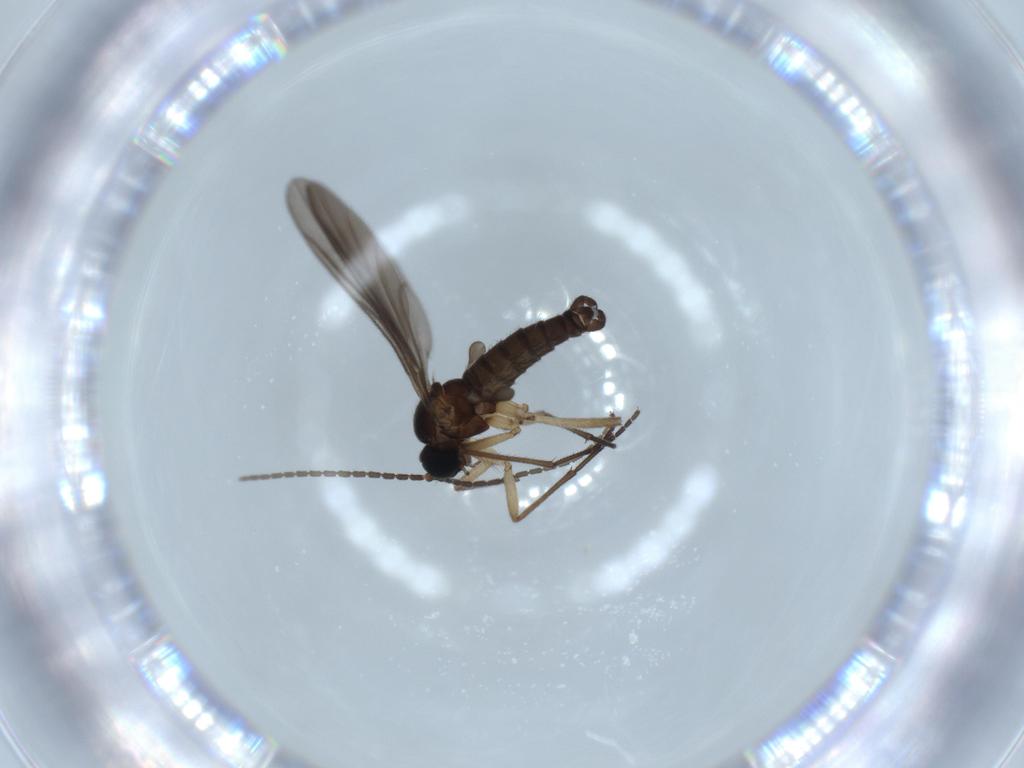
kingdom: Animalia
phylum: Arthropoda
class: Insecta
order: Diptera
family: Sciaridae
